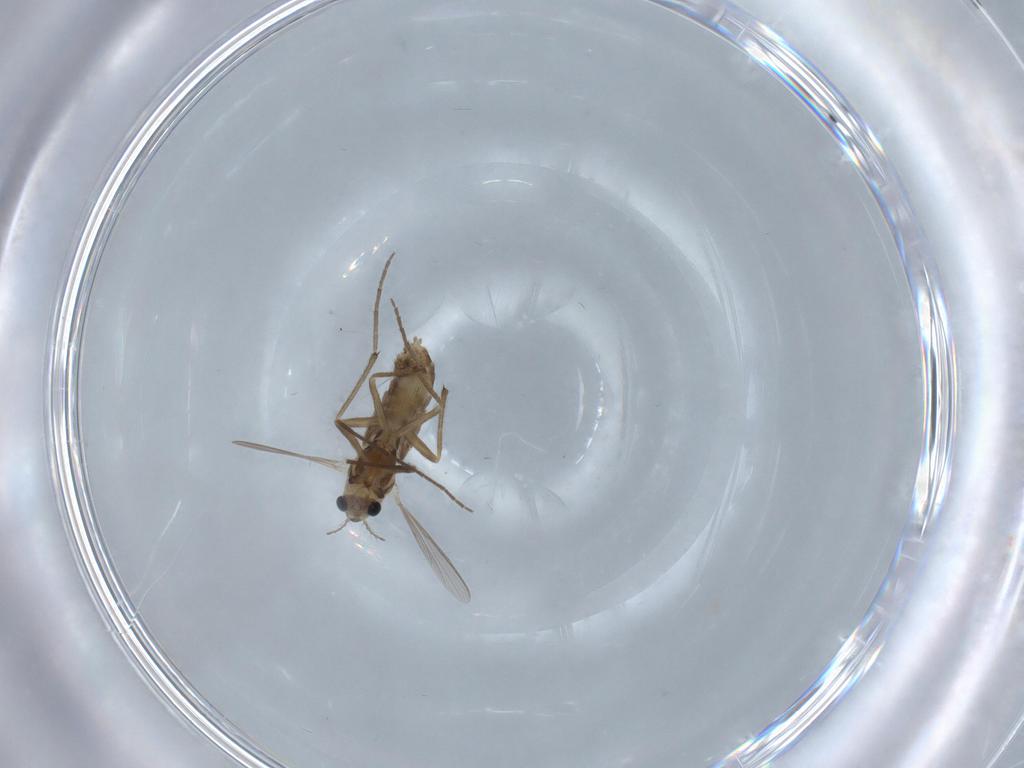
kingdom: Animalia
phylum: Arthropoda
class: Insecta
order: Diptera
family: Chironomidae
